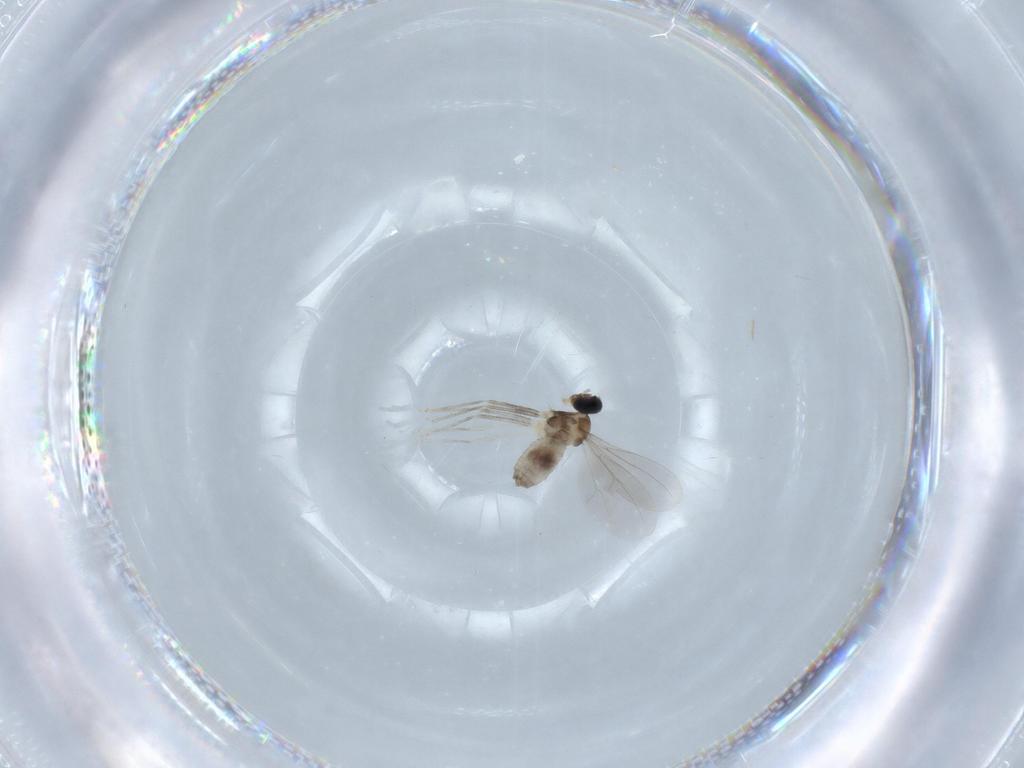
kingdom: Animalia
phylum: Arthropoda
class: Insecta
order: Diptera
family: Cecidomyiidae
